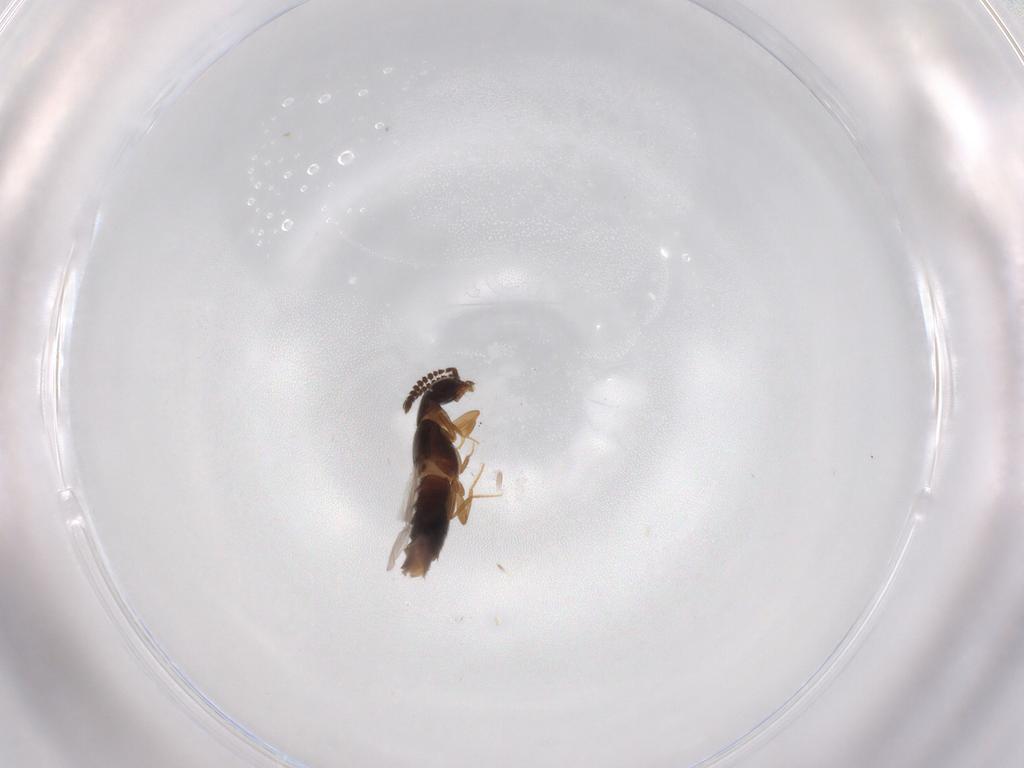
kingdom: Animalia
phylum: Arthropoda
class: Insecta
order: Coleoptera
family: Staphylinidae
